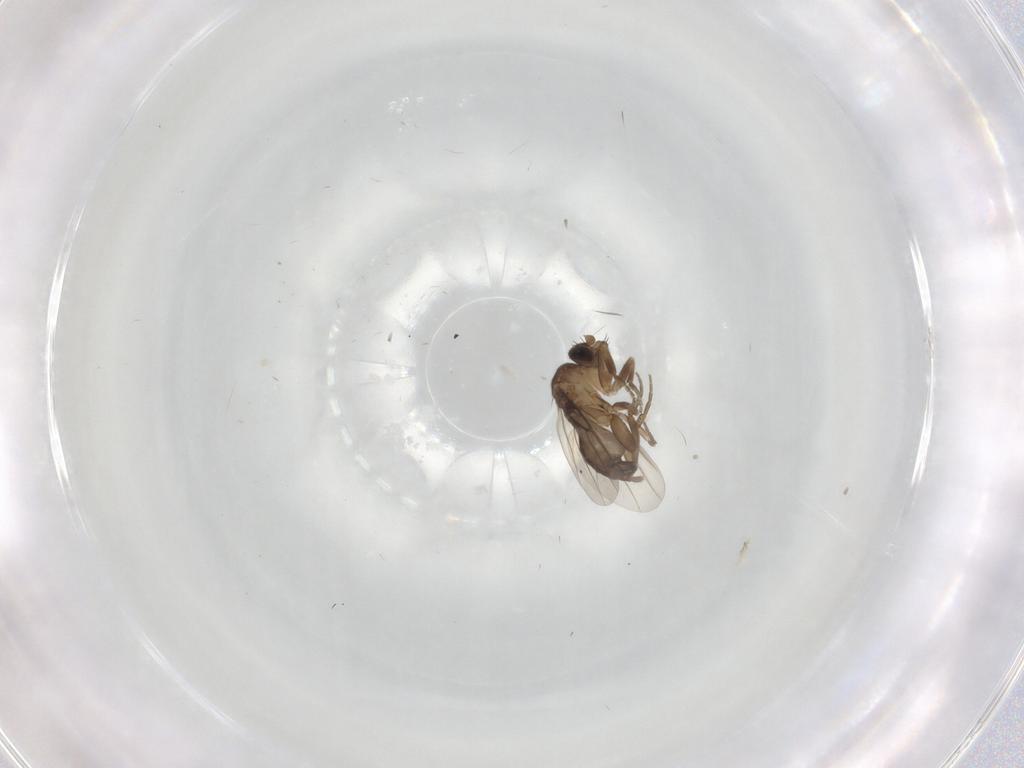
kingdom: Animalia
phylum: Arthropoda
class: Insecta
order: Diptera
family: Phoridae
